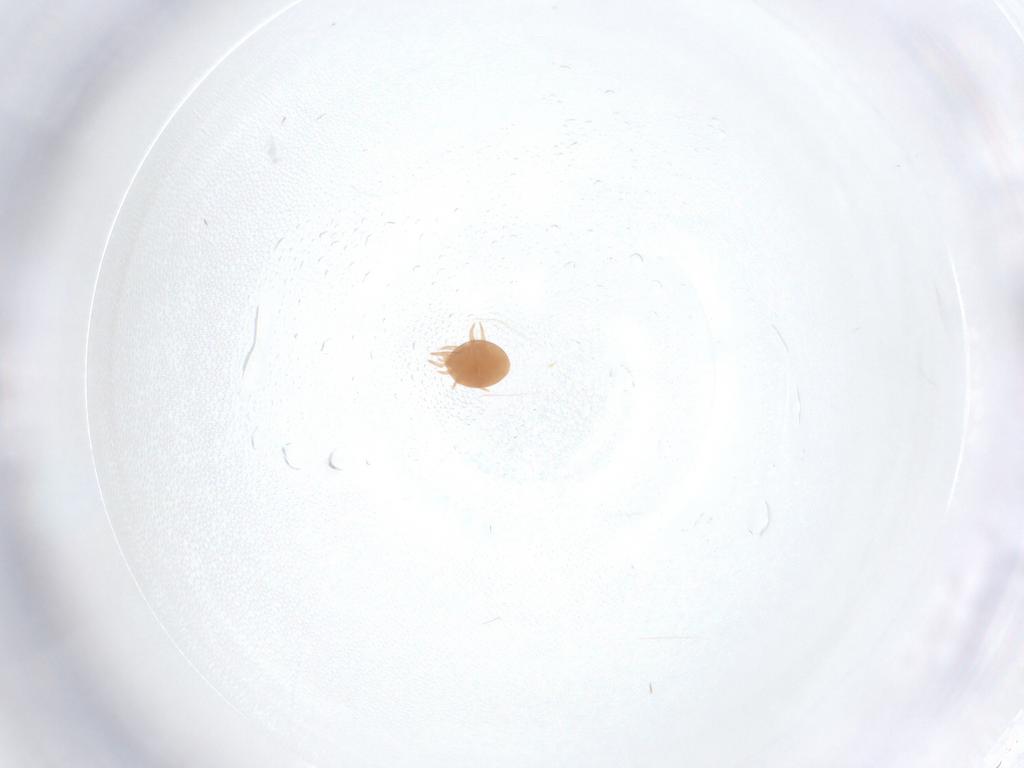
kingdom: Animalia
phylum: Arthropoda
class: Arachnida
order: Mesostigmata
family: Trematuridae
